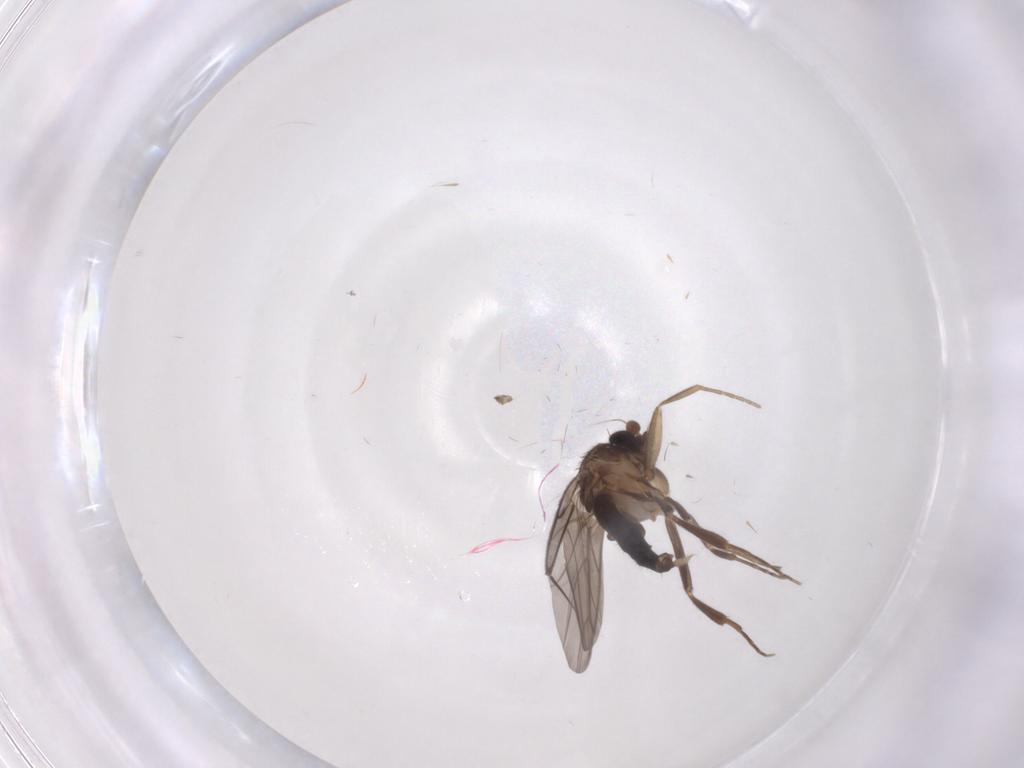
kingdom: Animalia
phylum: Arthropoda
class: Insecta
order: Diptera
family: Phoridae
